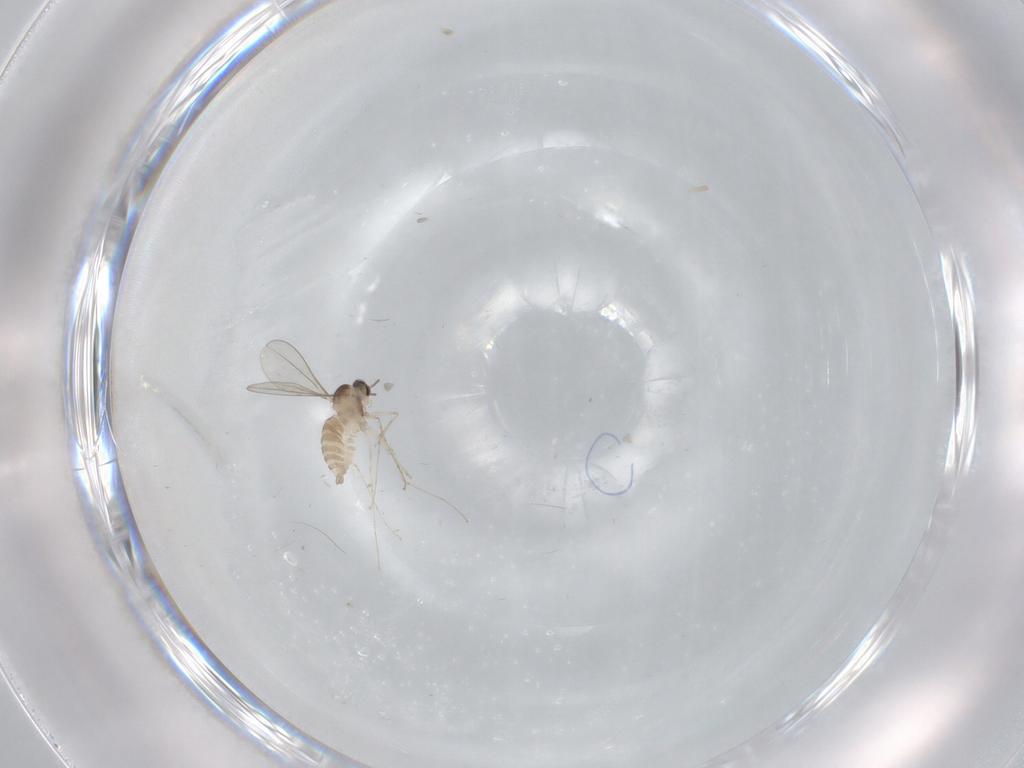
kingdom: Animalia
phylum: Arthropoda
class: Insecta
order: Diptera
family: Cecidomyiidae
